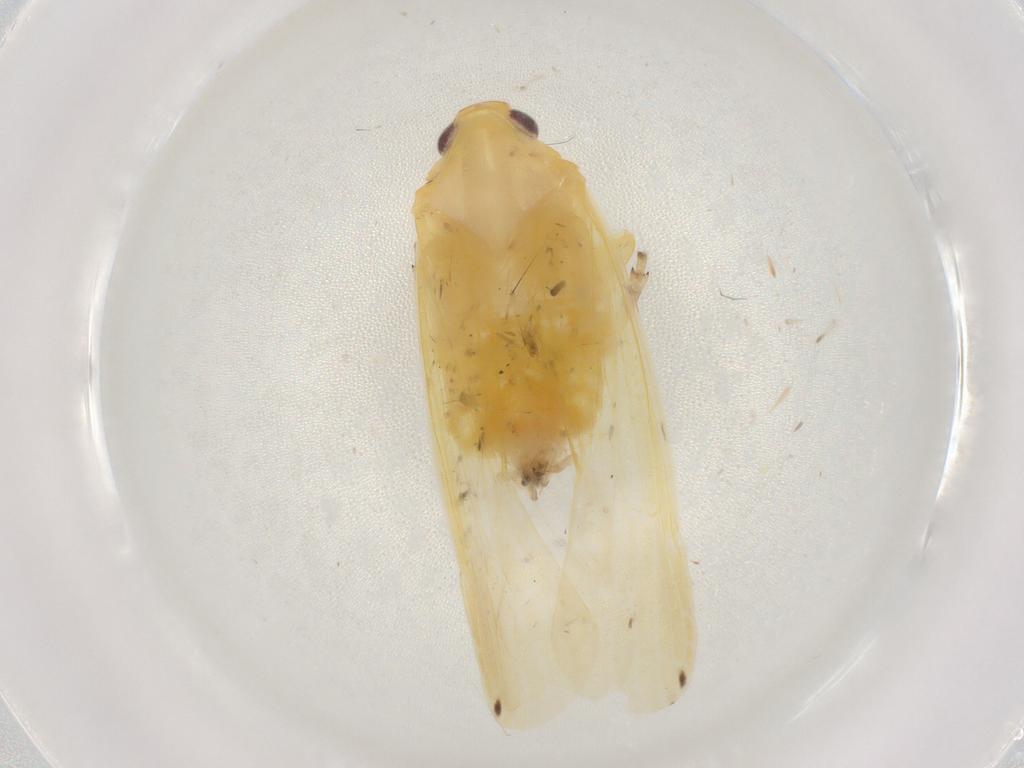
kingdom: Animalia
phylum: Arthropoda
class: Insecta
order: Hemiptera
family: Achilidae
